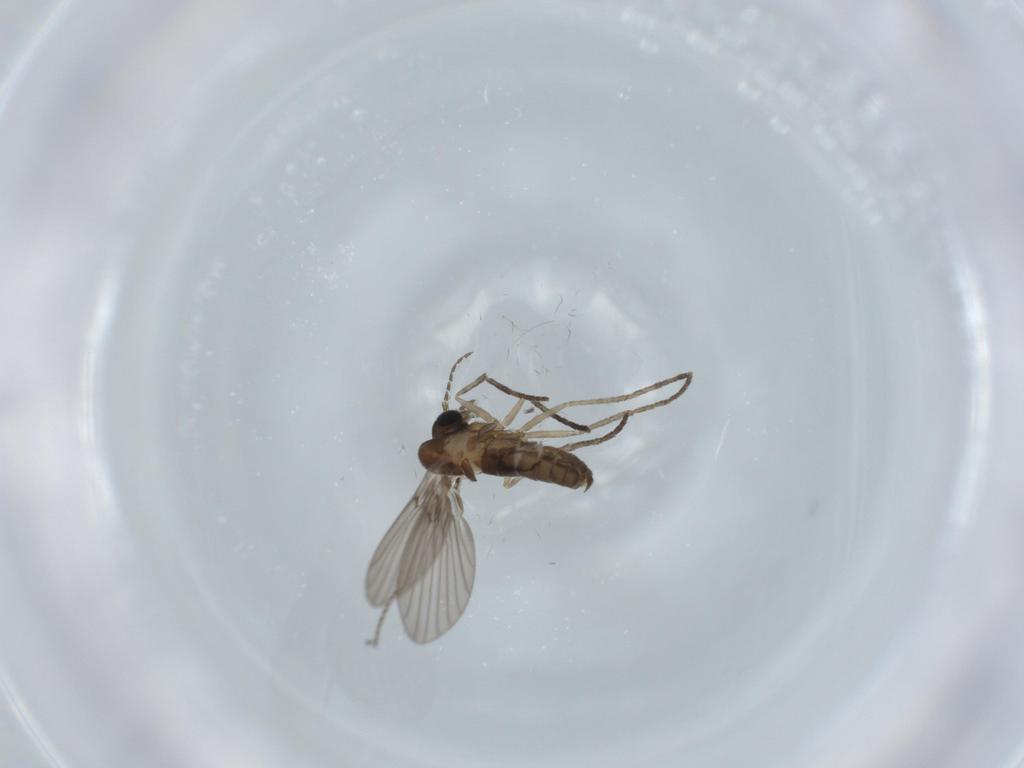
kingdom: Animalia
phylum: Arthropoda
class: Insecta
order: Diptera
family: Psychodidae
